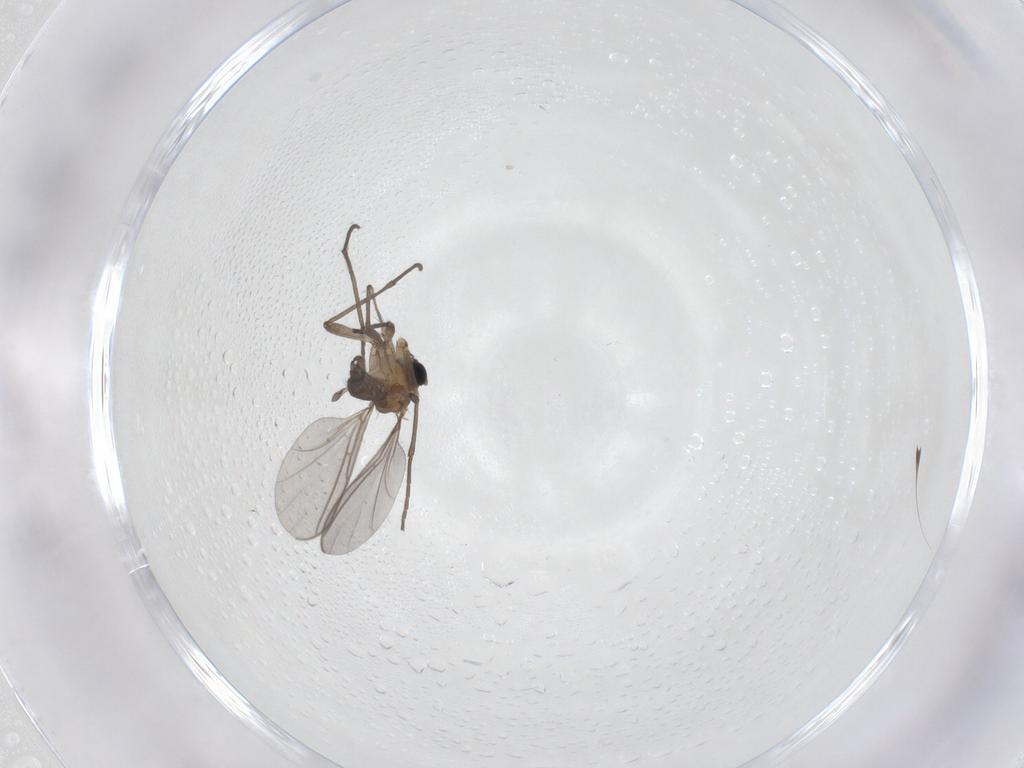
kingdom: Animalia
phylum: Arthropoda
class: Insecta
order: Diptera
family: Sciaridae
